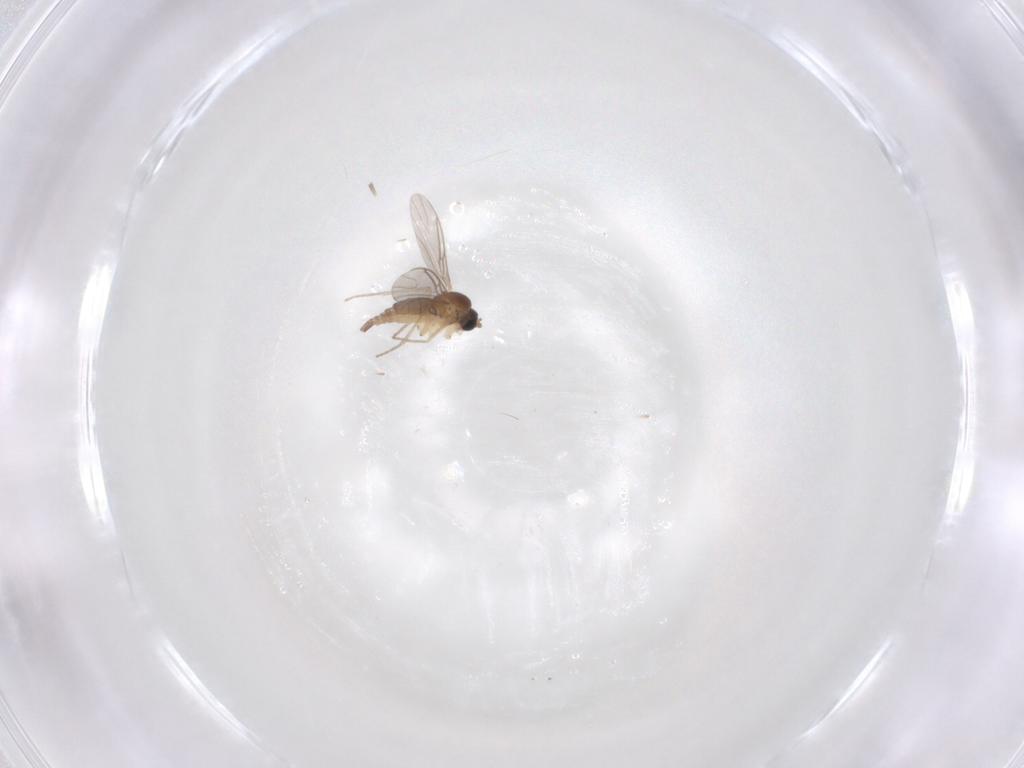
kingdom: Animalia
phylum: Arthropoda
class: Insecta
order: Diptera
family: Sciaridae
